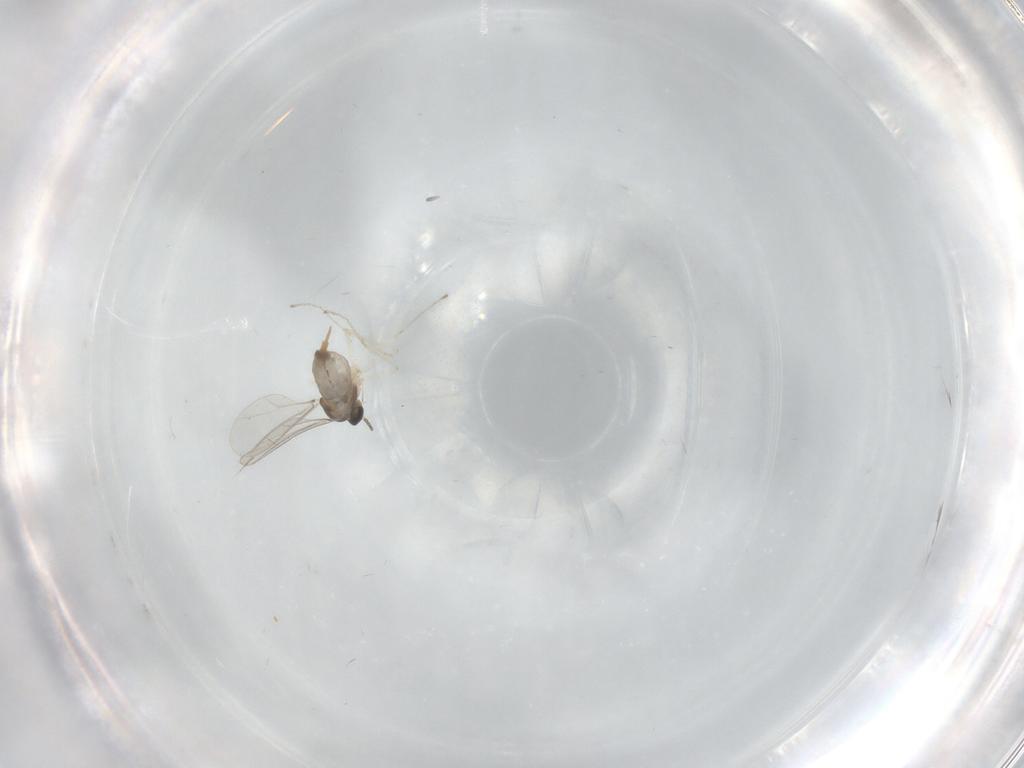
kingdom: Animalia
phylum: Arthropoda
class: Insecta
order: Diptera
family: Cecidomyiidae
